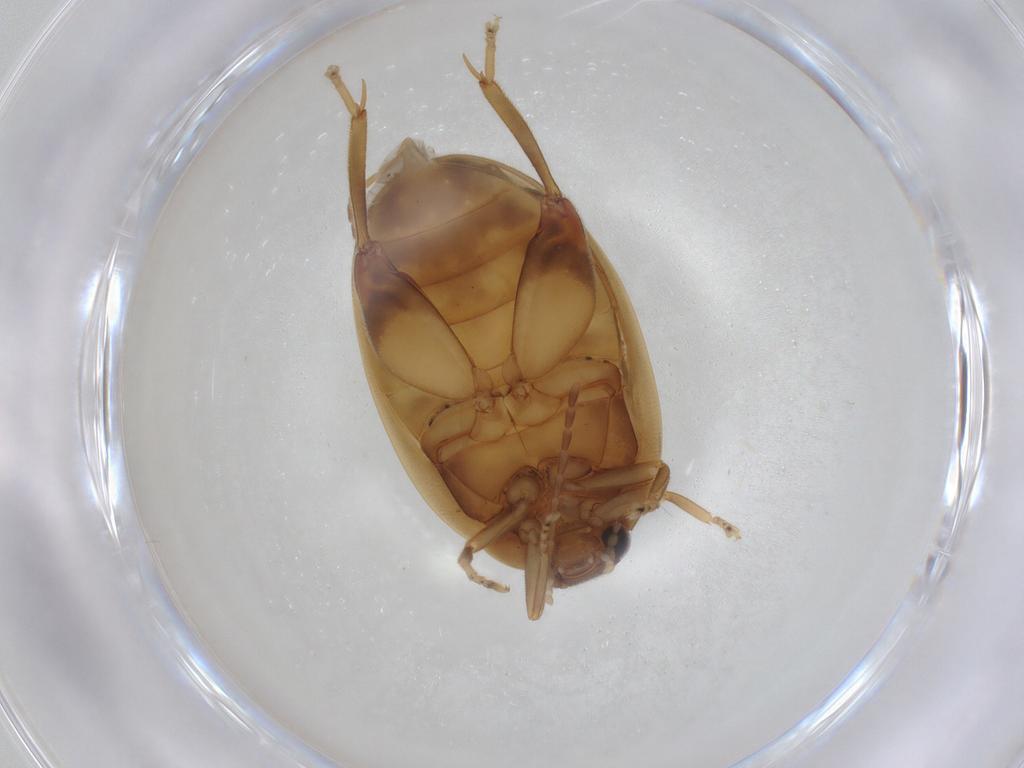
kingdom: Animalia
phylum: Arthropoda
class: Insecta
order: Coleoptera
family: Scirtidae
